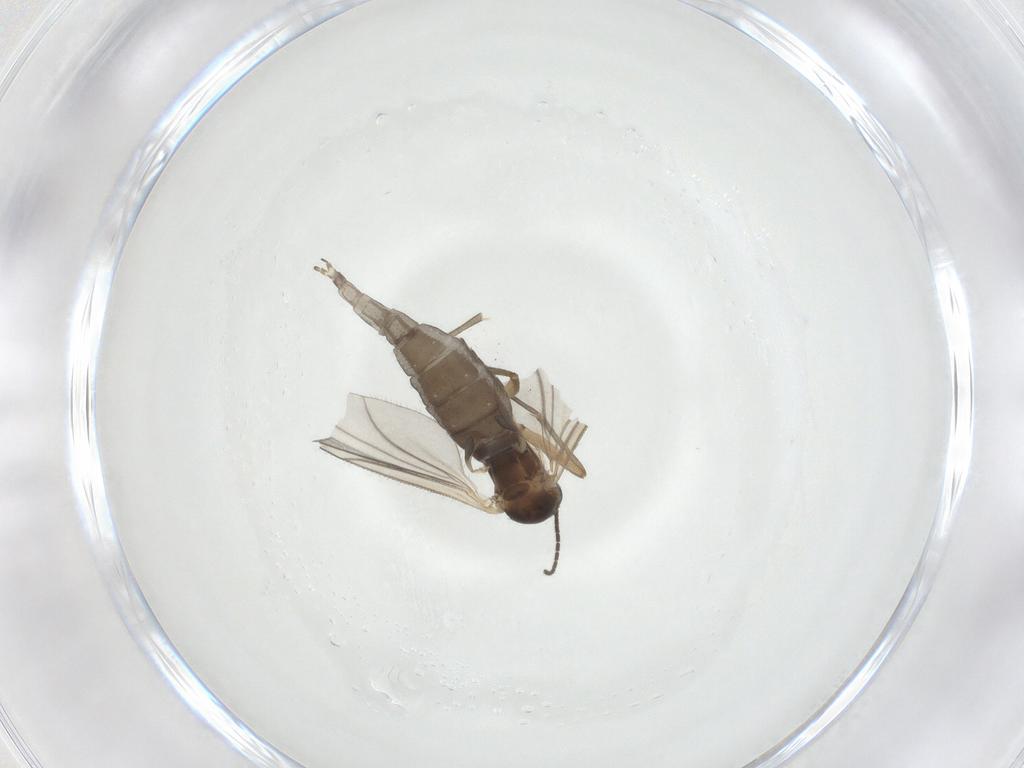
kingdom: Animalia
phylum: Arthropoda
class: Insecta
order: Diptera
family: Sciaridae
